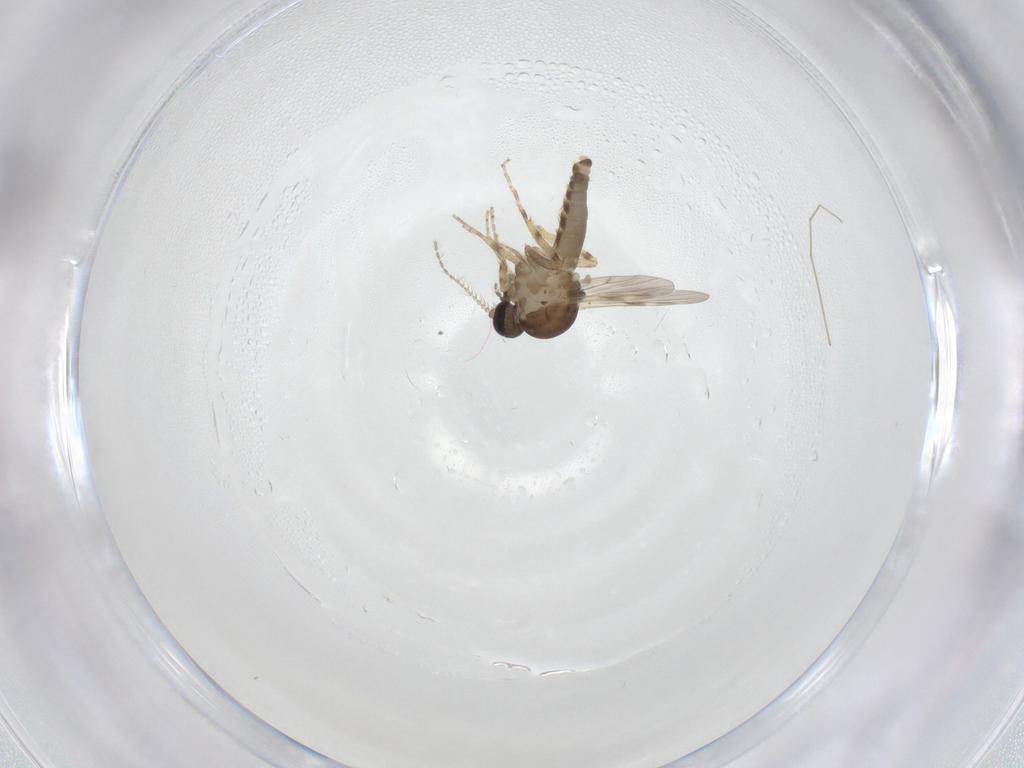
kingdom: Animalia
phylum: Arthropoda
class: Insecta
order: Diptera
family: Ceratopogonidae
